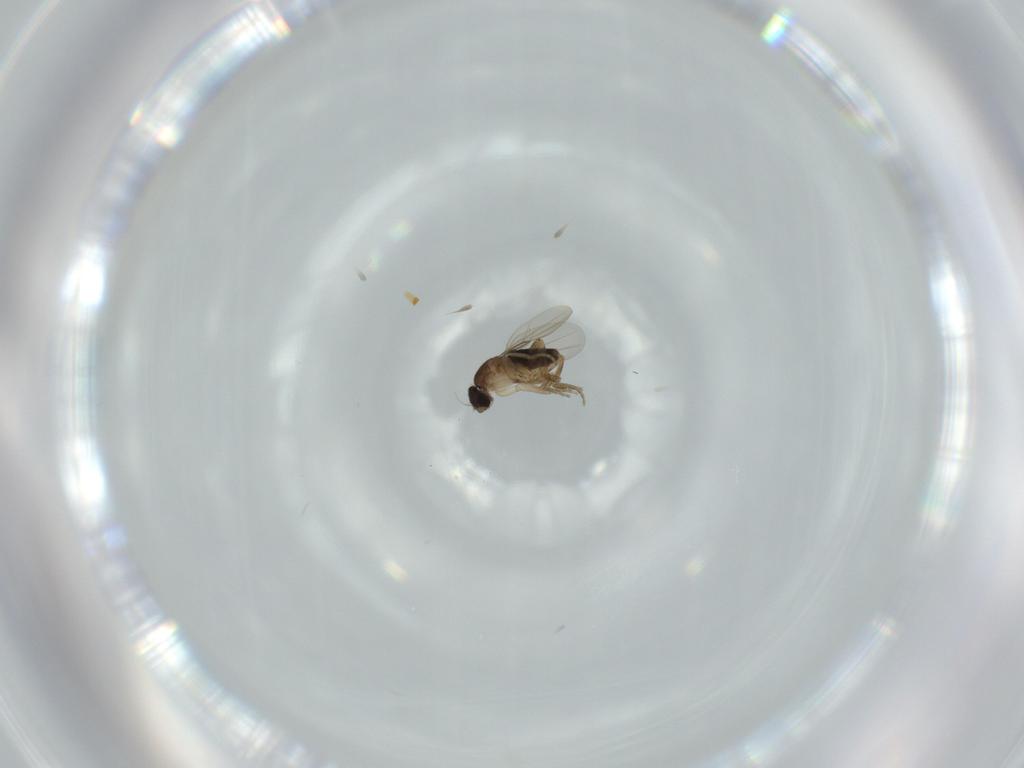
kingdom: Animalia
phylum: Arthropoda
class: Insecta
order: Diptera
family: Phoridae
